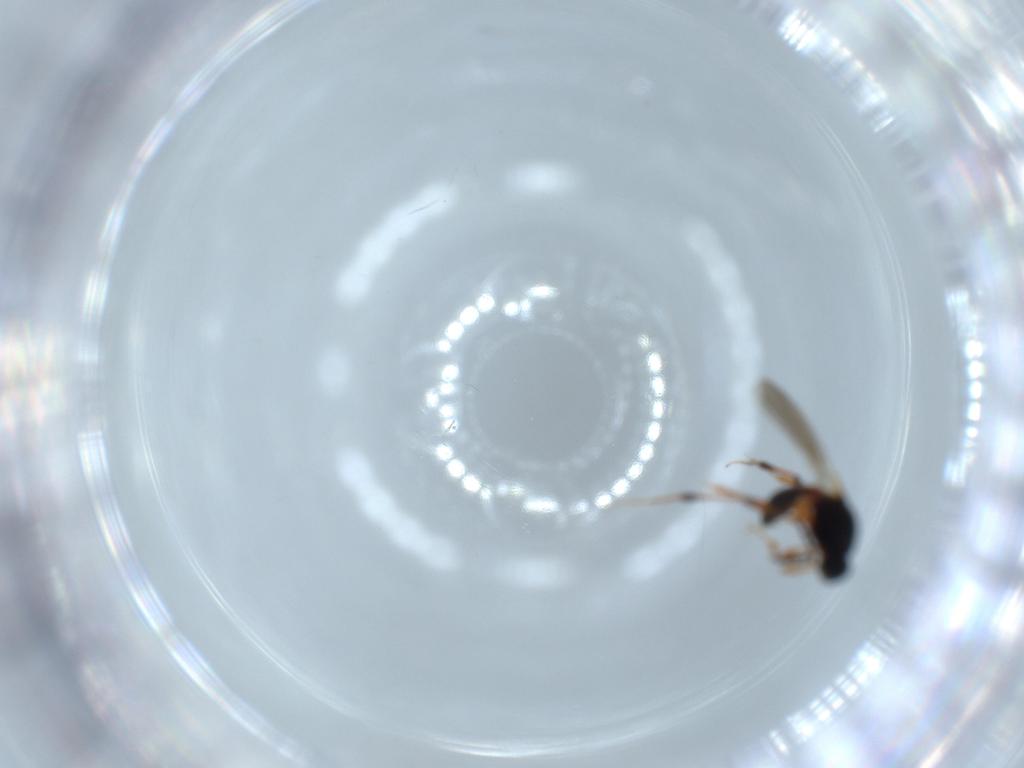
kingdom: Animalia
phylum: Arthropoda
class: Insecta
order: Hymenoptera
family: Platygastridae
